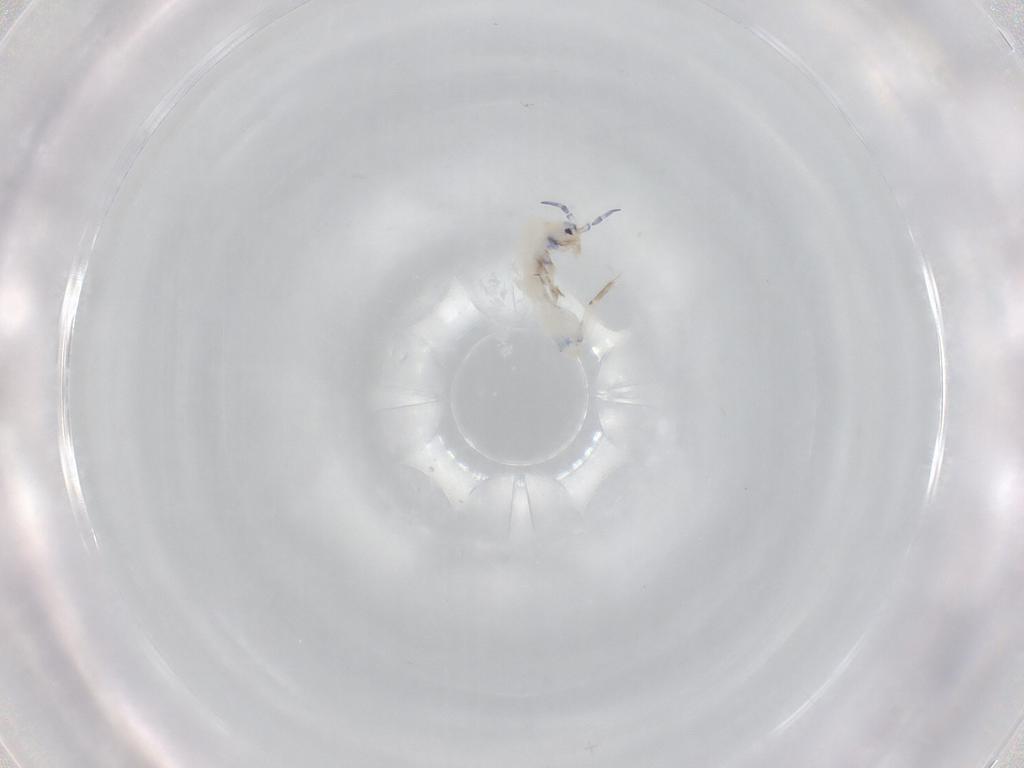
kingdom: Animalia
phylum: Arthropoda
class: Collembola
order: Entomobryomorpha
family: Entomobryidae
